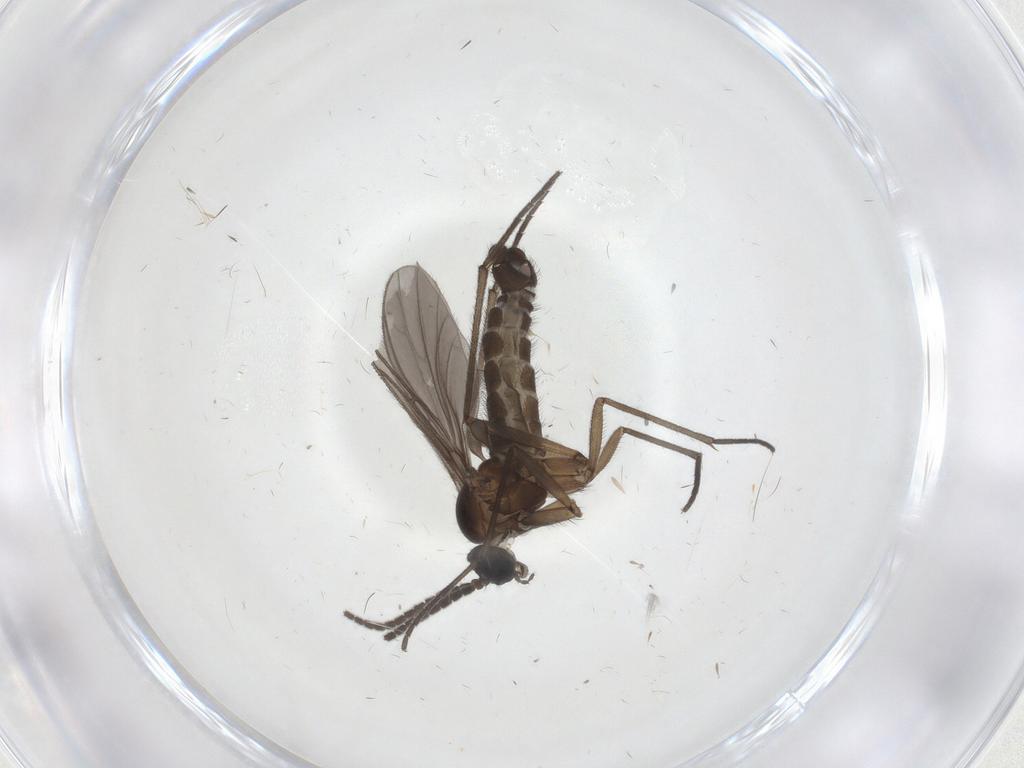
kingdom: Animalia
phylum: Arthropoda
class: Insecta
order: Diptera
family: Sciaridae
